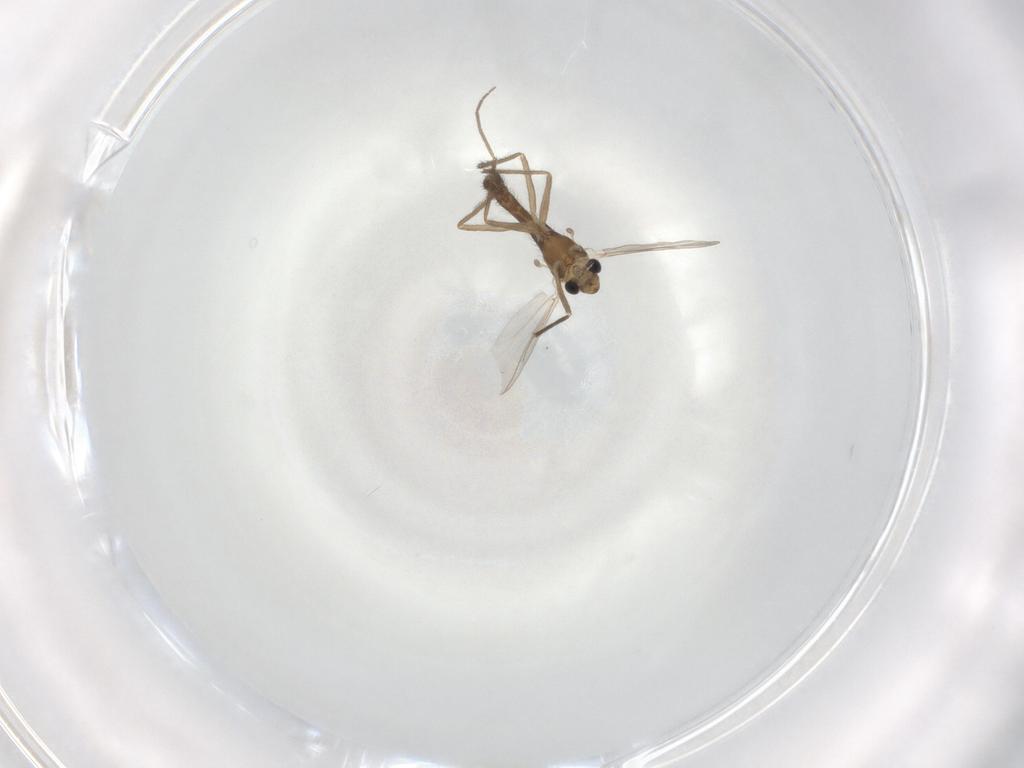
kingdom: Animalia
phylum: Arthropoda
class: Insecta
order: Diptera
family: Chironomidae
